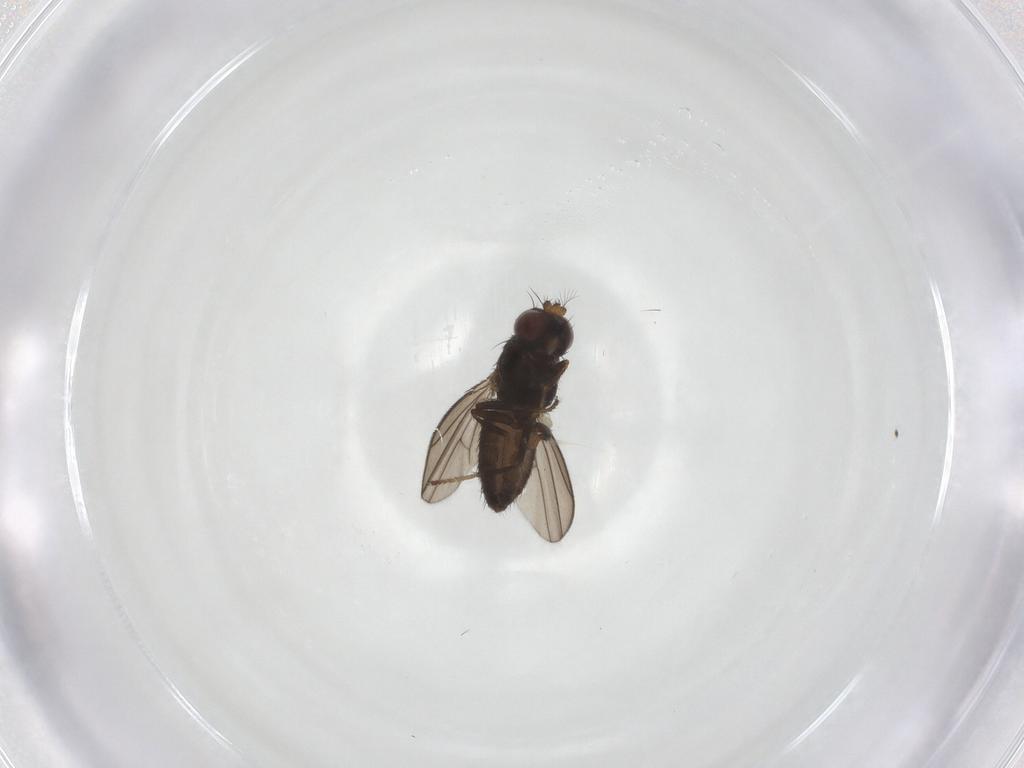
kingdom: Animalia
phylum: Arthropoda
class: Insecta
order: Diptera
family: Ephydridae
